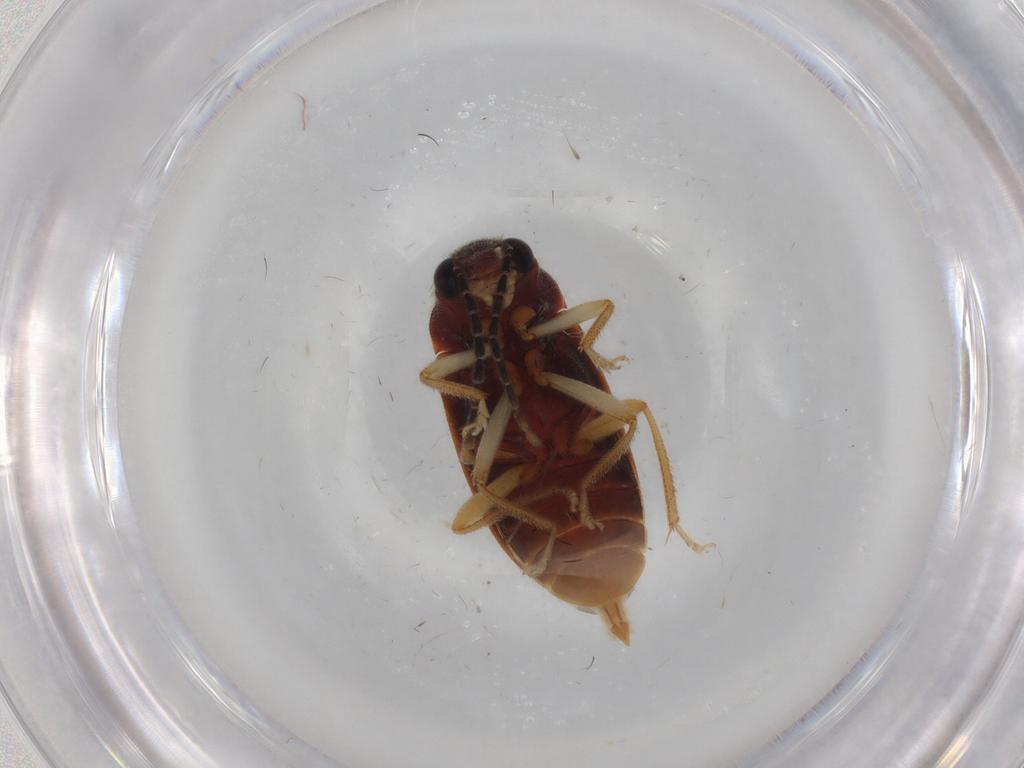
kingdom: Animalia
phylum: Arthropoda
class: Insecta
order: Coleoptera
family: Ptilodactylidae
